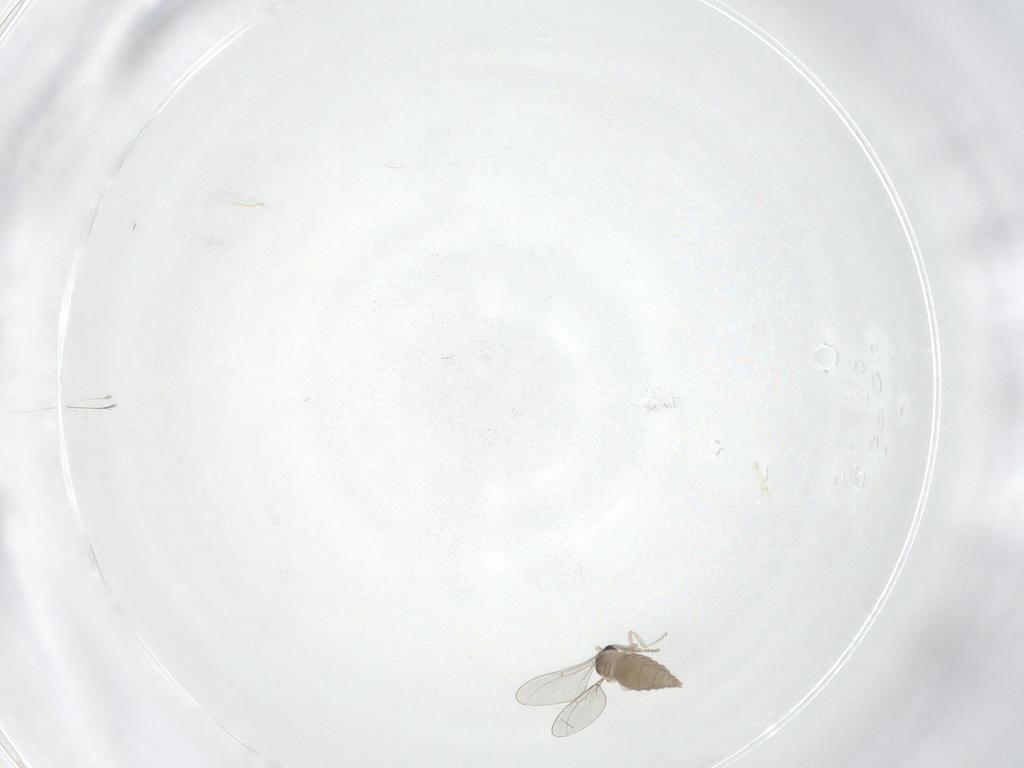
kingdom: Animalia
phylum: Arthropoda
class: Insecta
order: Diptera
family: Cecidomyiidae
